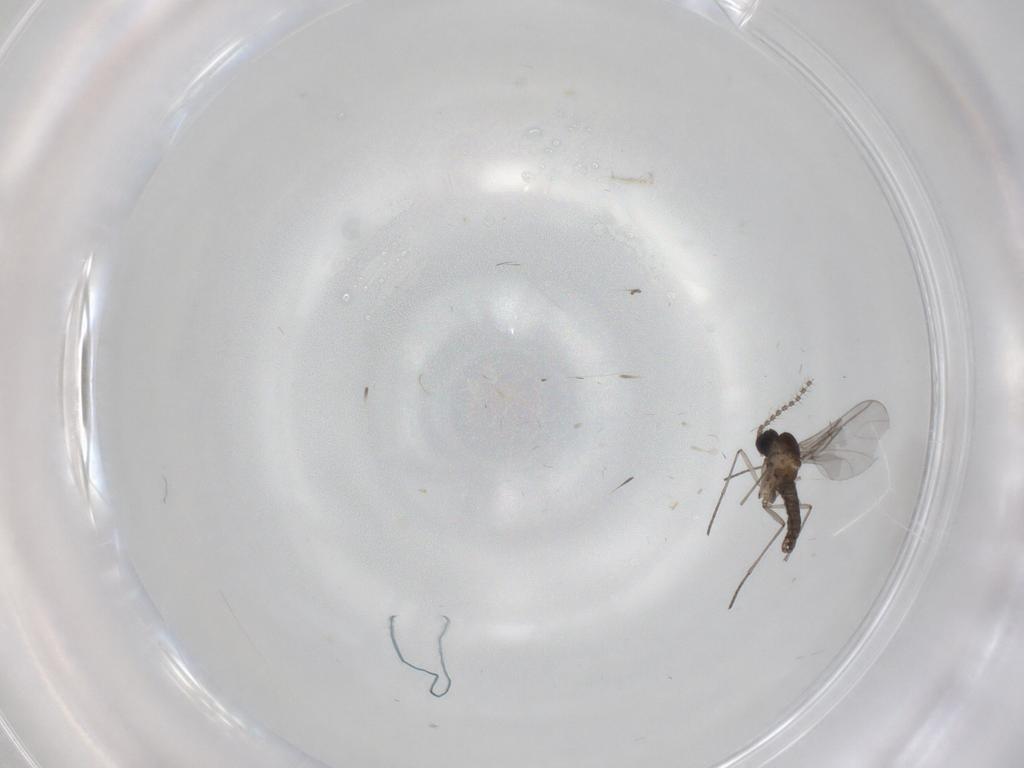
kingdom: Animalia
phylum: Arthropoda
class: Insecta
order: Diptera
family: Sciaridae
